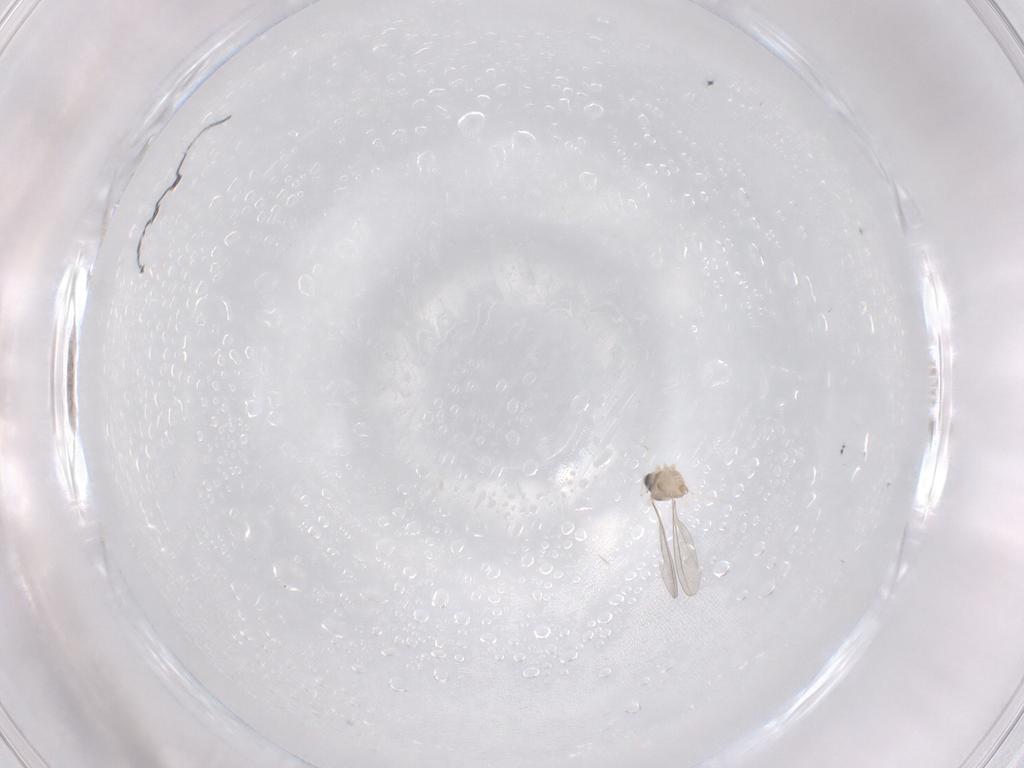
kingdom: Animalia
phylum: Arthropoda
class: Insecta
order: Diptera
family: Cecidomyiidae
